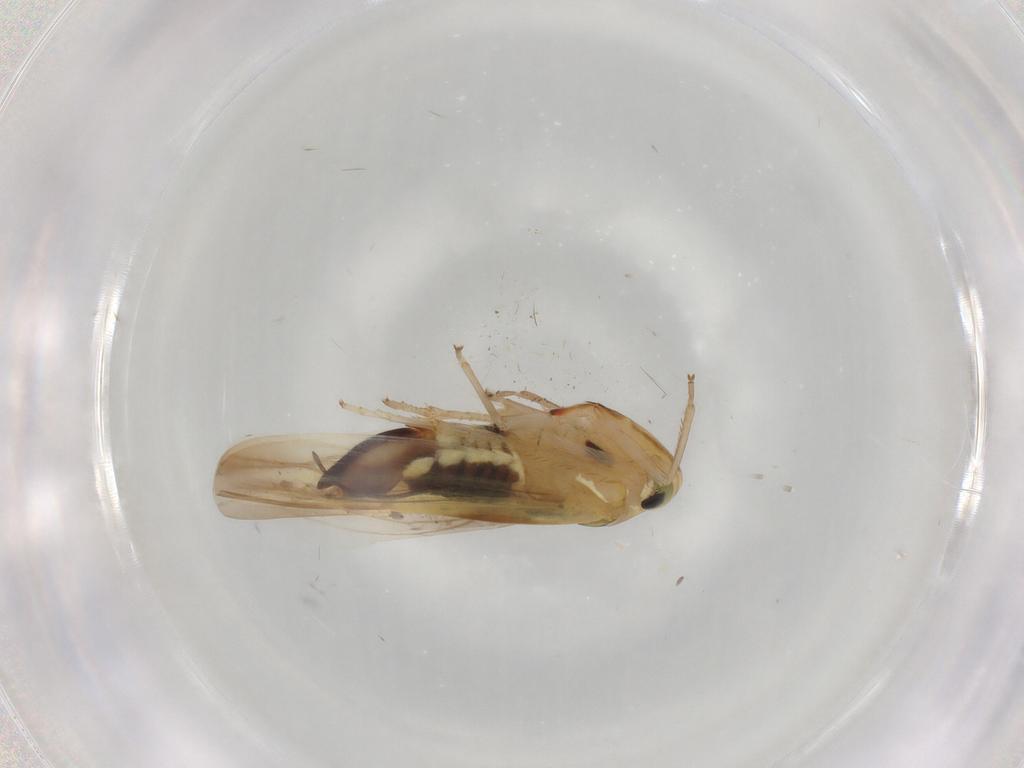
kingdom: Animalia
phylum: Arthropoda
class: Insecta
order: Hemiptera
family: Cicadellidae
